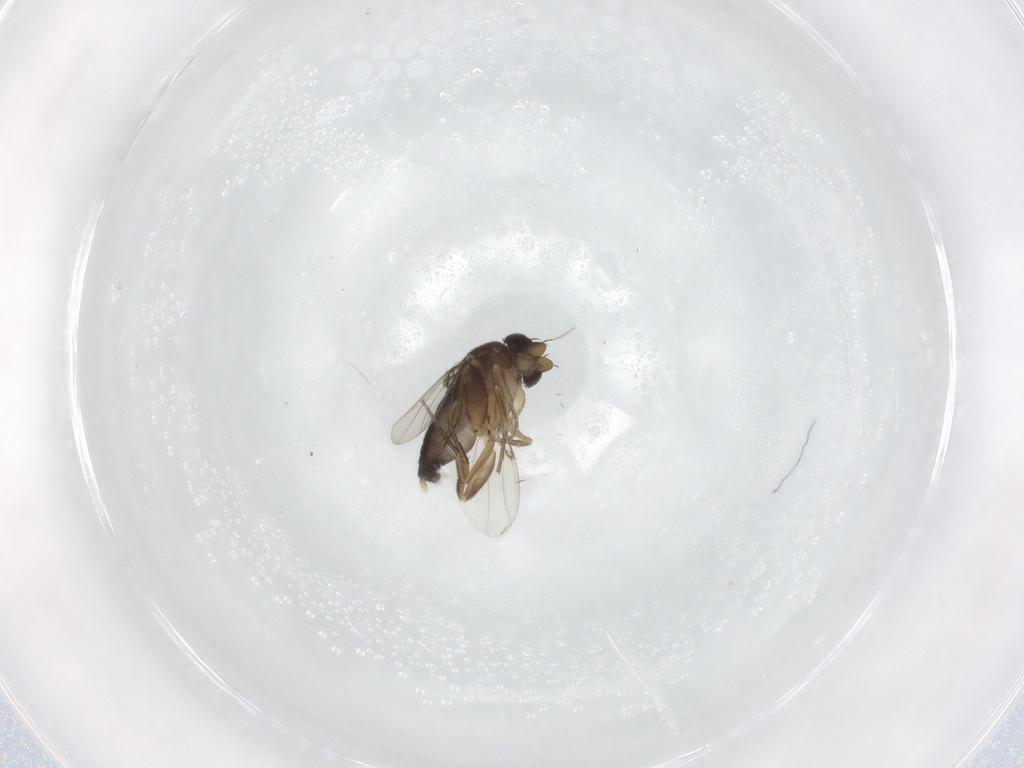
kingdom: Animalia
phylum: Arthropoda
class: Insecta
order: Diptera
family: Phoridae
